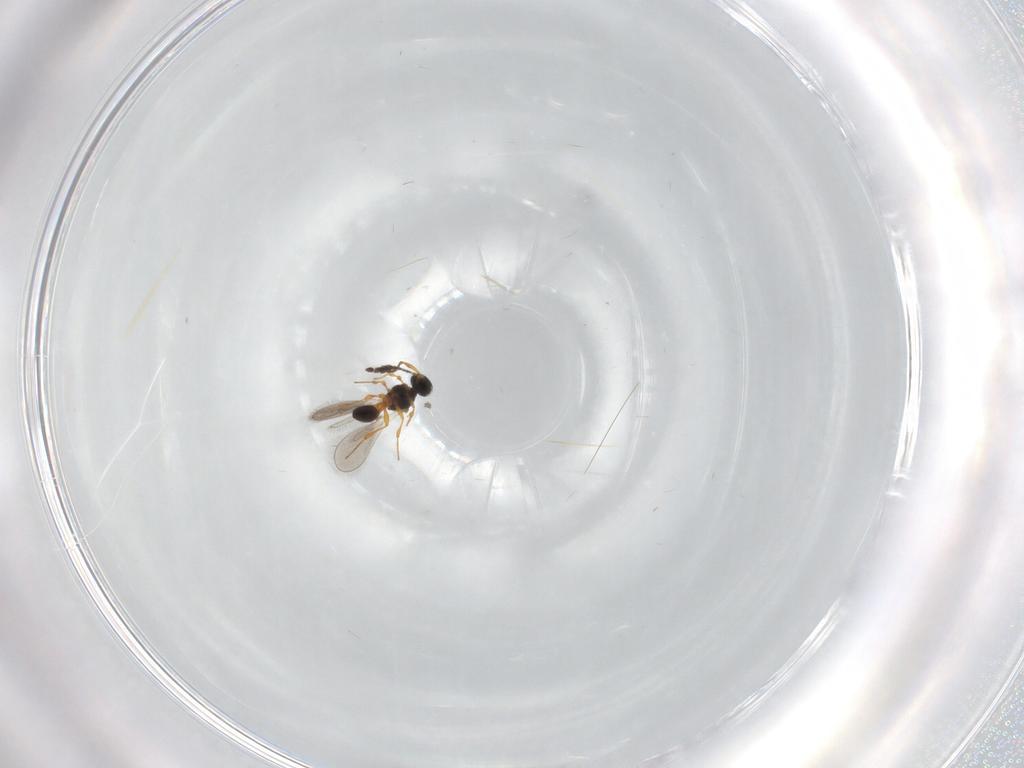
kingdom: Animalia
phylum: Arthropoda
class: Insecta
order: Hymenoptera
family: Platygastridae
